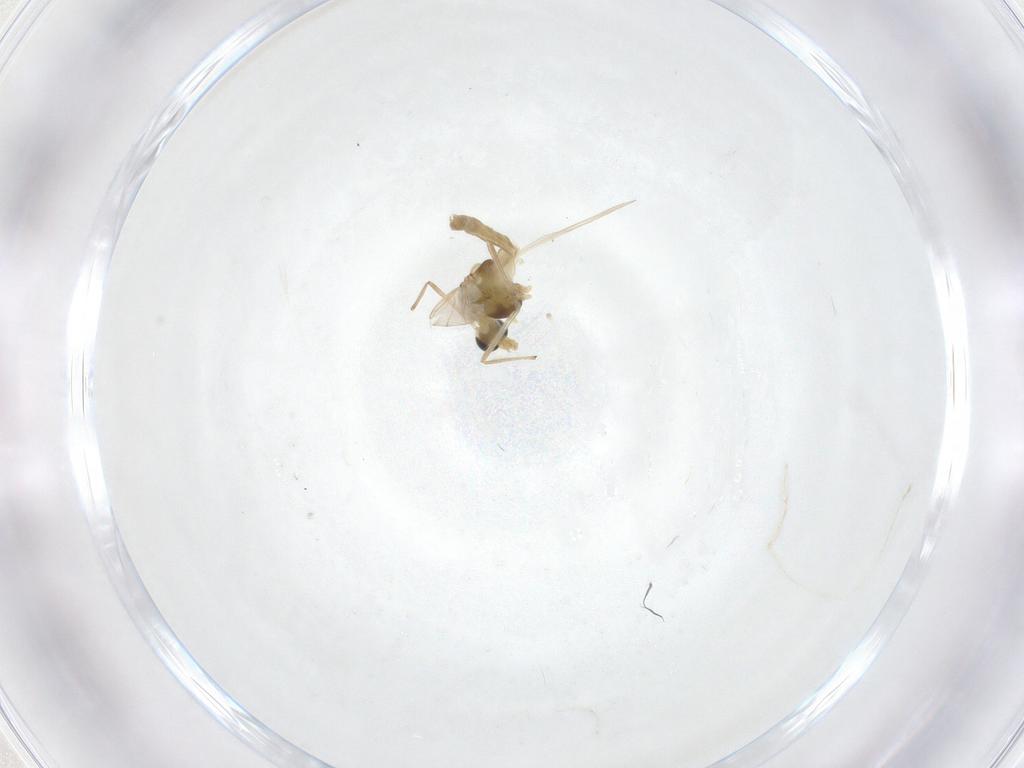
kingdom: Animalia
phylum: Arthropoda
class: Insecta
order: Diptera
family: Chironomidae
